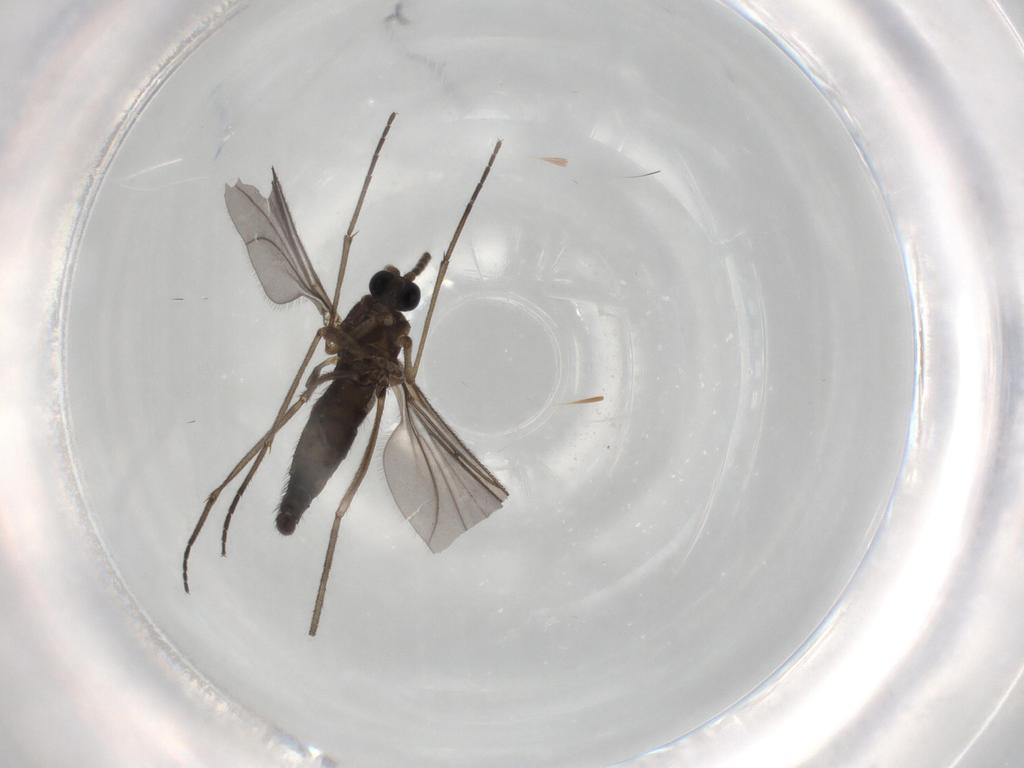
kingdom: Animalia
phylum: Arthropoda
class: Insecta
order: Diptera
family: Sciaridae
